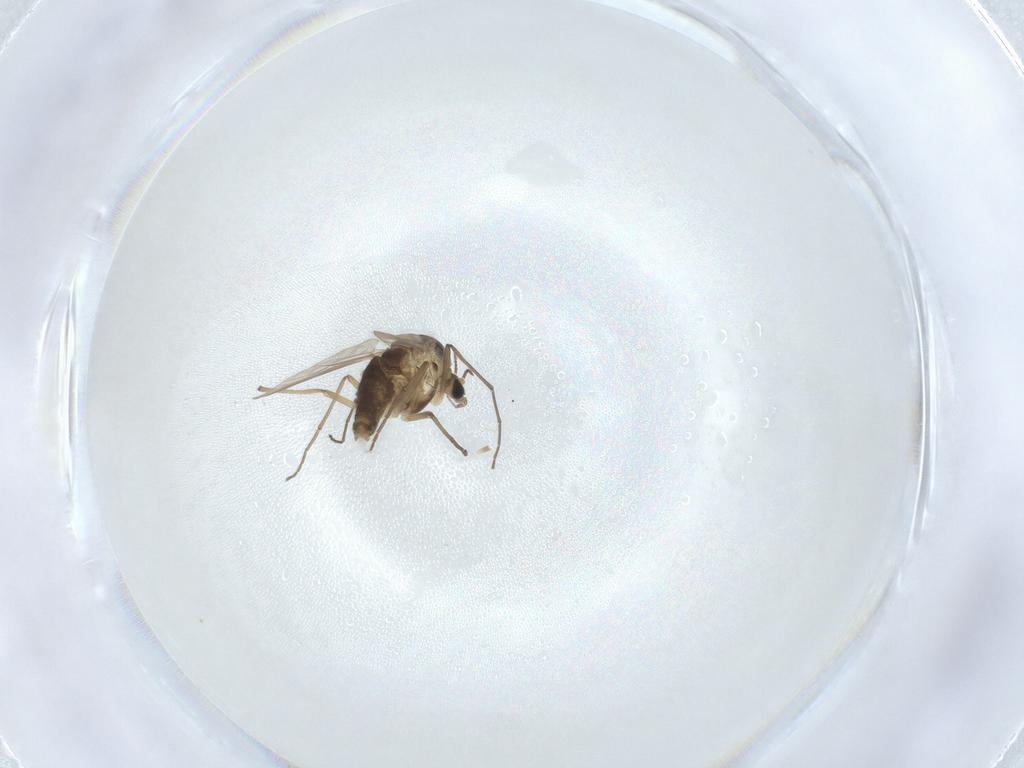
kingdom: Animalia
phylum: Arthropoda
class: Insecta
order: Diptera
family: Chironomidae
